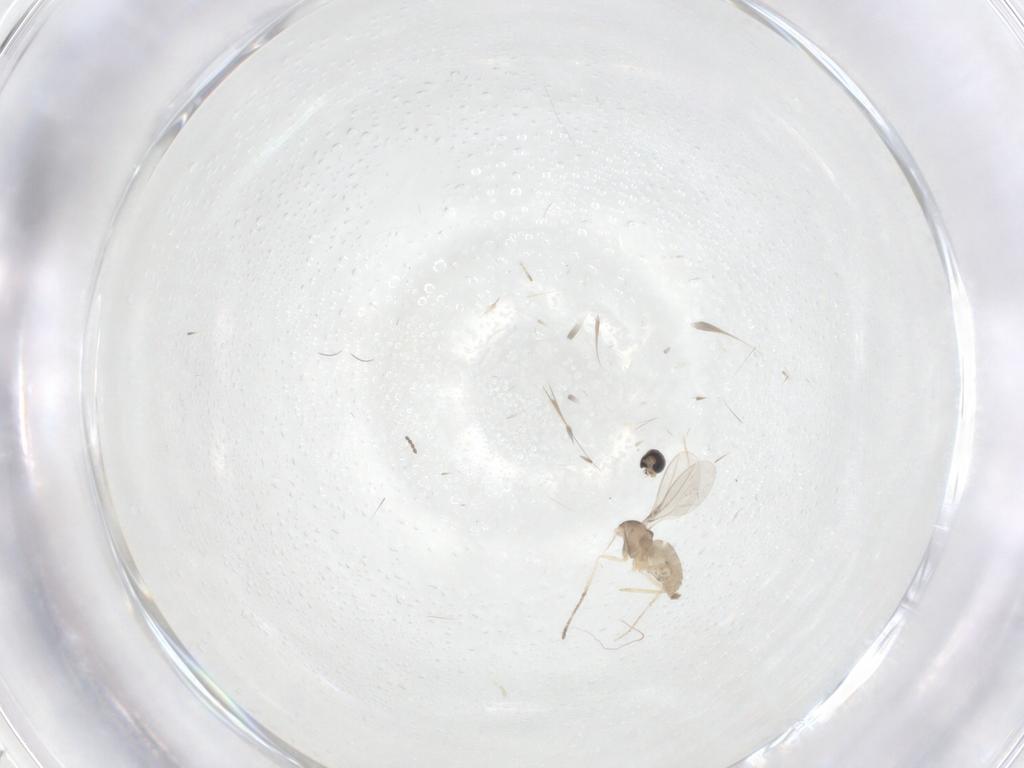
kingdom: Animalia
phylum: Arthropoda
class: Insecta
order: Diptera
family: Cecidomyiidae
